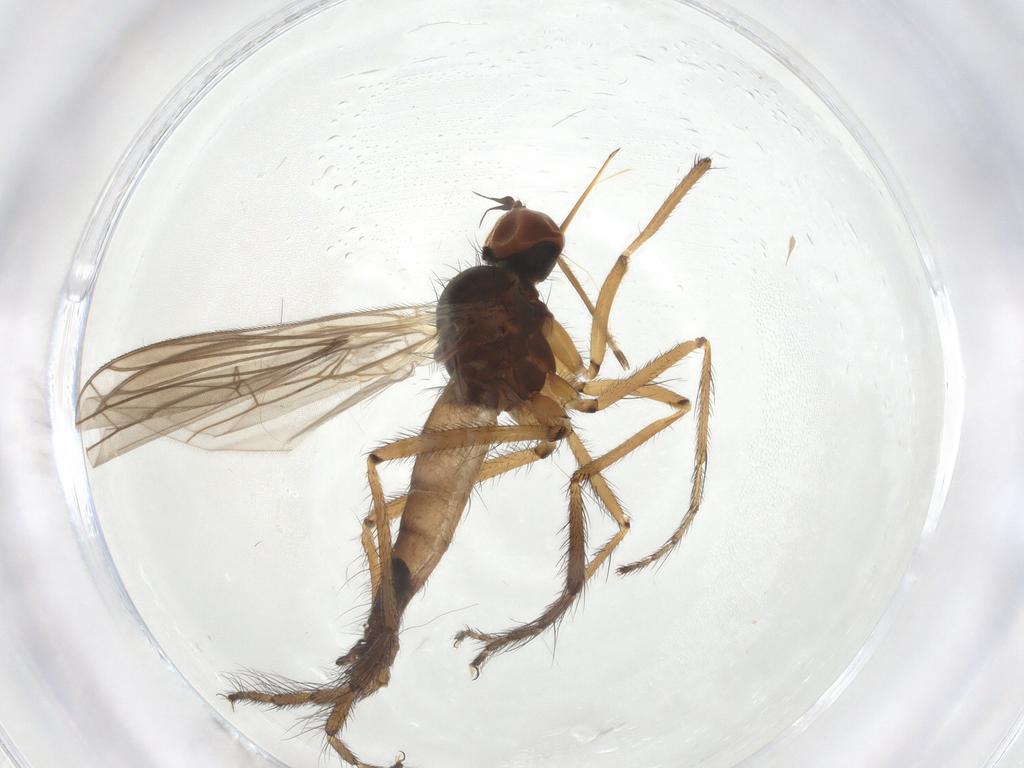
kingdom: Animalia
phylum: Arthropoda
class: Insecta
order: Diptera
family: Empididae
